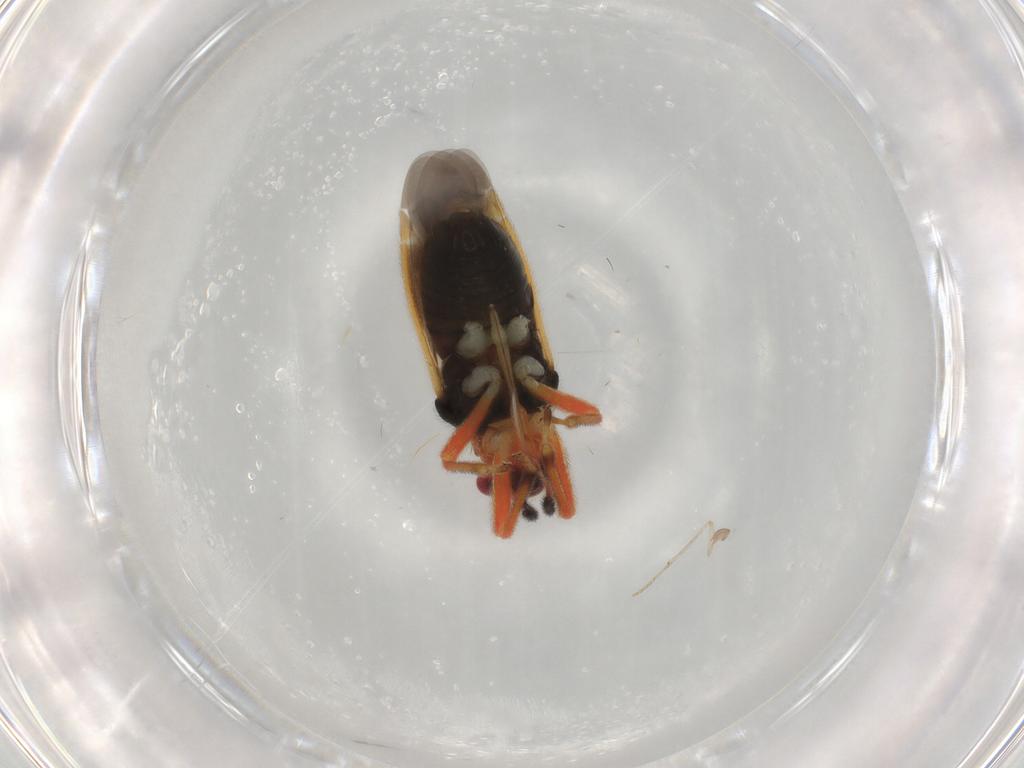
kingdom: Animalia
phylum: Arthropoda
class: Insecta
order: Hemiptera
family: Miridae
